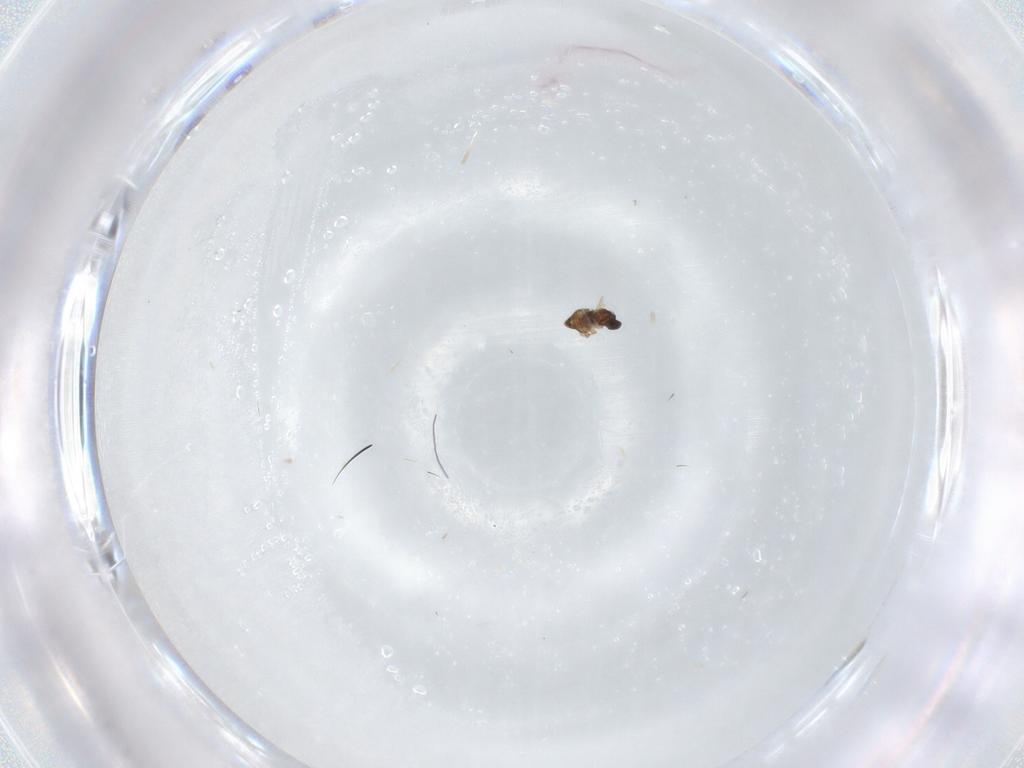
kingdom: Animalia
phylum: Arthropoda
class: Insecta
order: Diptera
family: Cecidomyiidae
